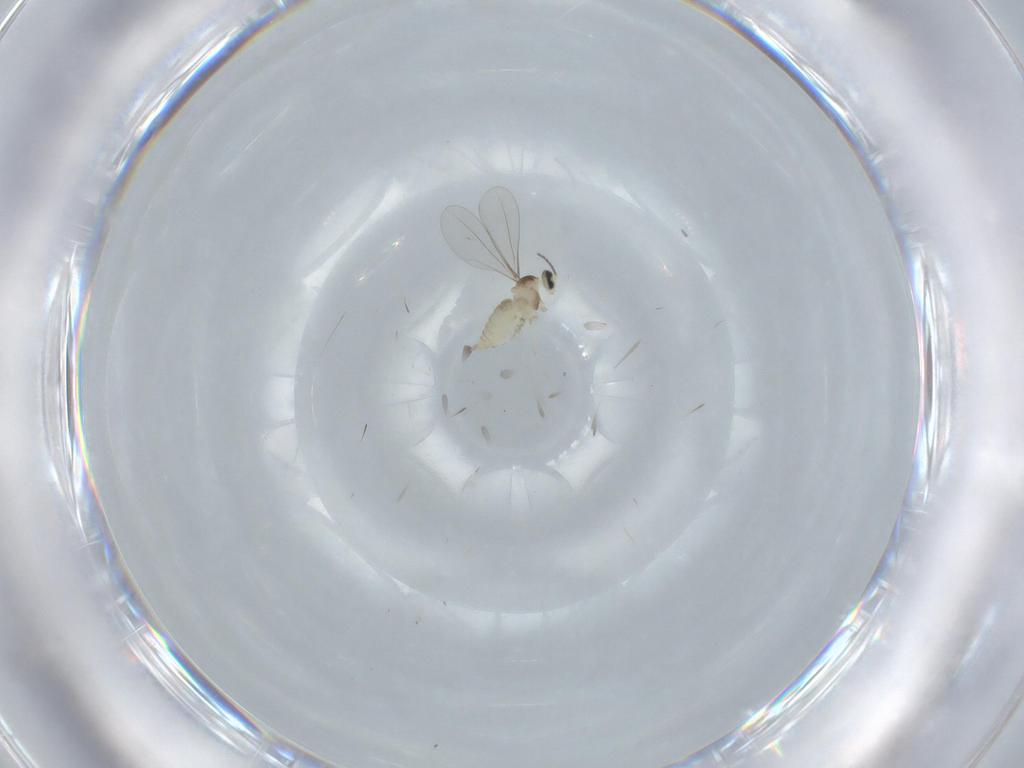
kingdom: Animalia
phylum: Arthropoda
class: Insecta
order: Diptera
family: Cecidomyiidae
